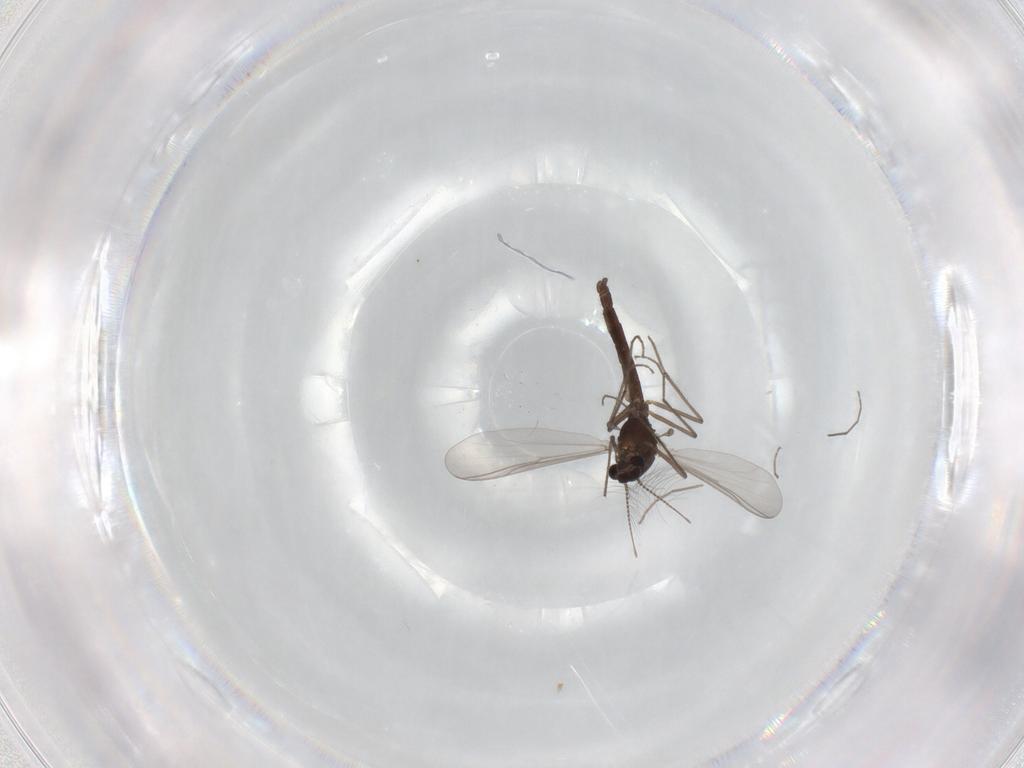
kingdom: Animalia
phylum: Arthropoda
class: Insecta
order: Diptera
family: Chironomidae
